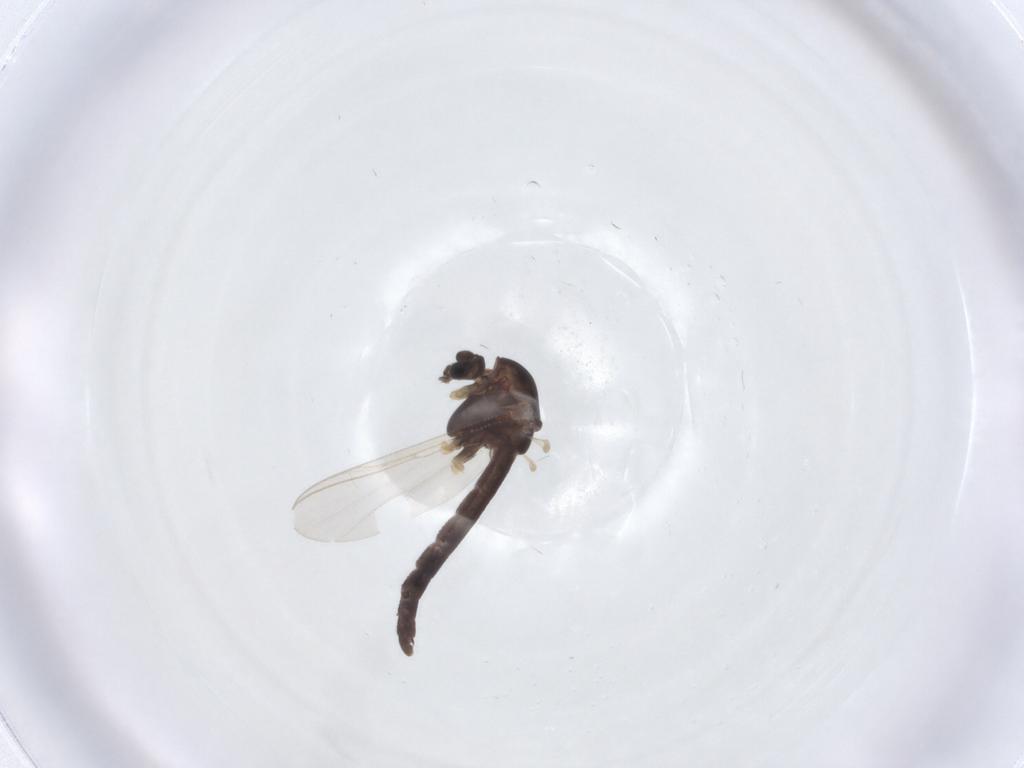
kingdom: Animalia
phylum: Arthropoda
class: Insecta
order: Diptera
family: Chironomidae
